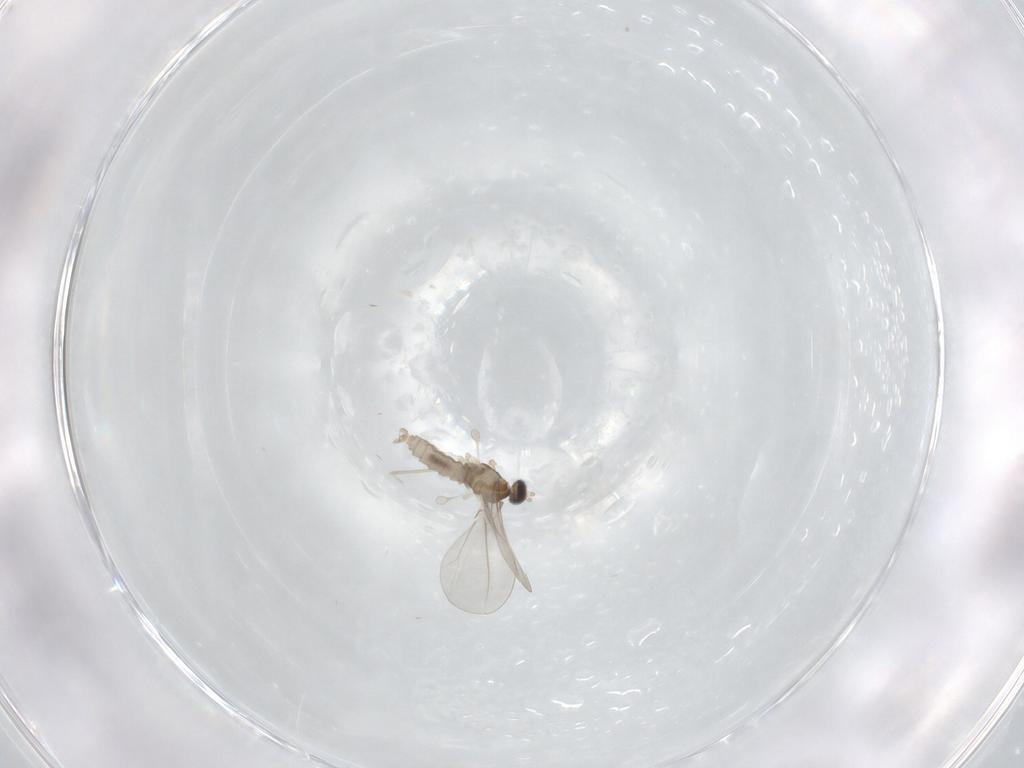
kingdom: Animalia
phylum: Arthropoda
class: Insecta
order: Diptera
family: Cecidomyiidae
